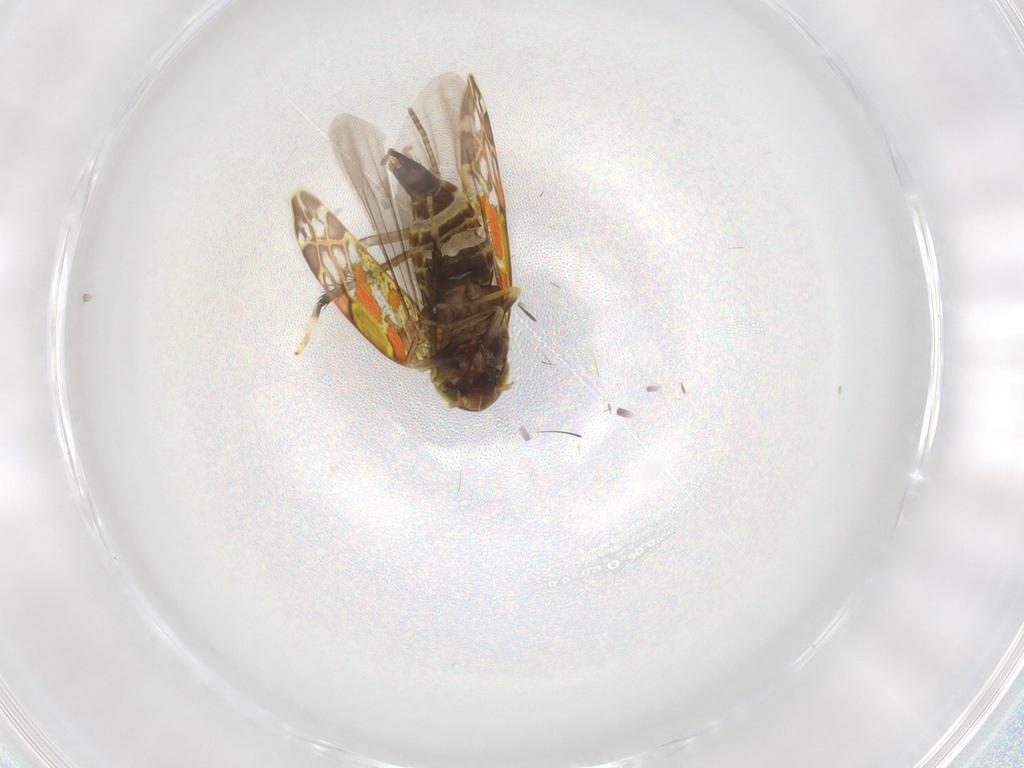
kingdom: Animalia
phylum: Arthropoda
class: Insecta
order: Hemiptera
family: Cicadellidae
